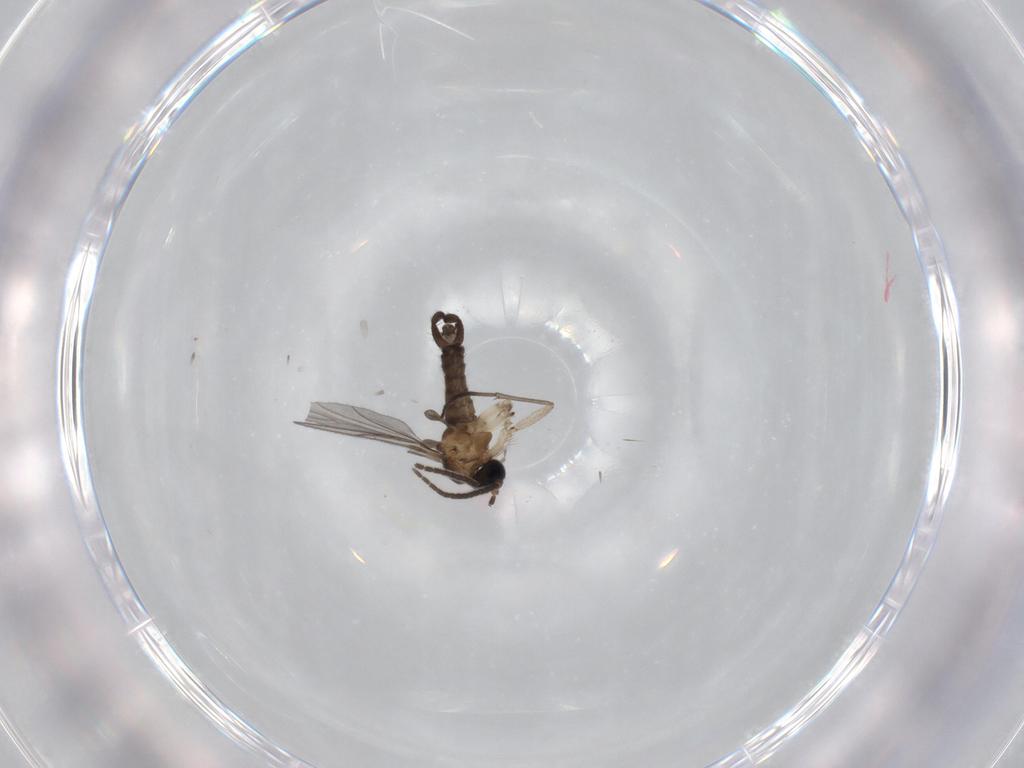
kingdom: Animalia
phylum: Arthropoda
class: Insecta
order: Diptera
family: Sciaridae
